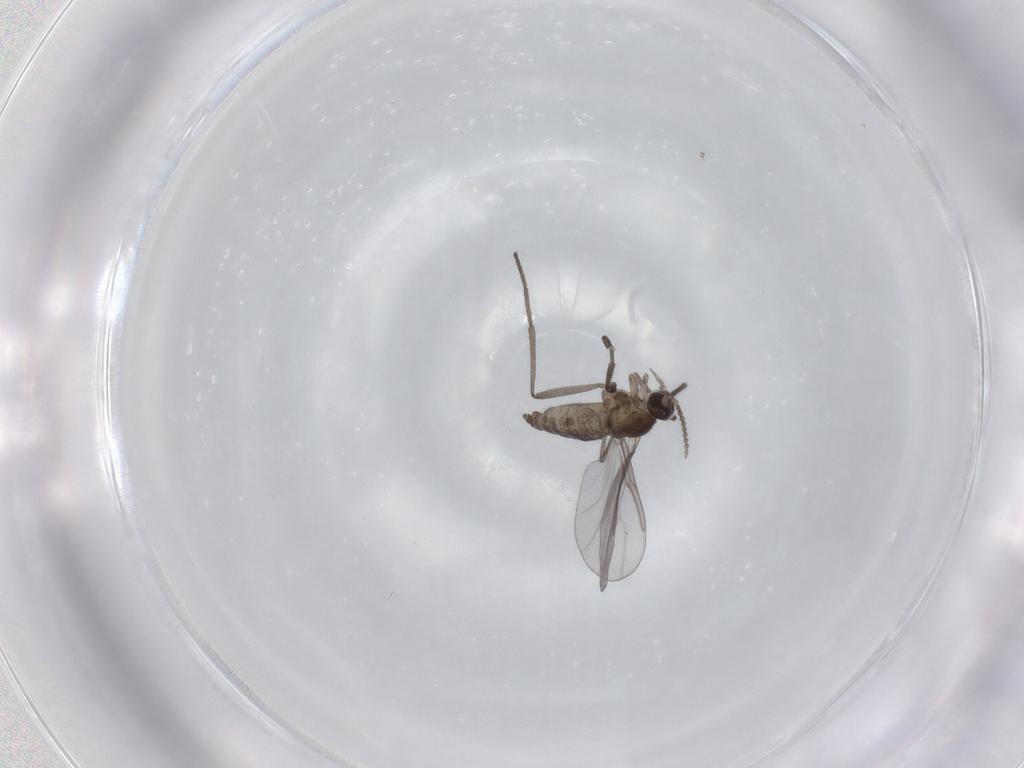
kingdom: Animalia
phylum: Arthropoda
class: Insecta
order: Diptera
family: Cecidomyiidae
